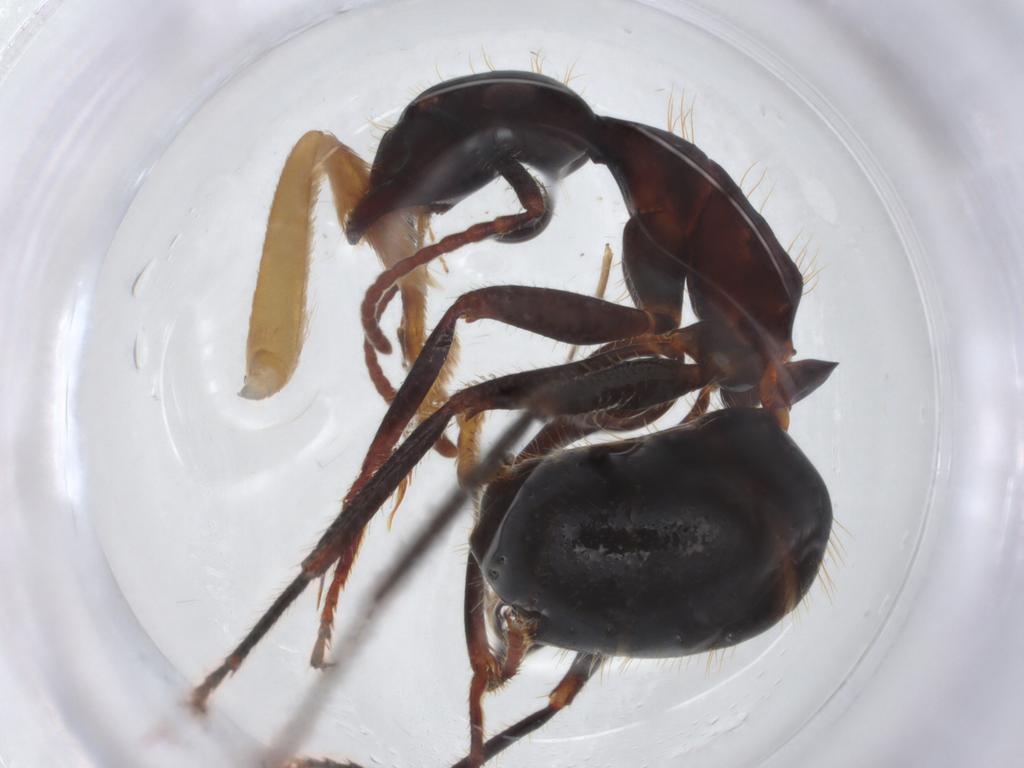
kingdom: Animalia
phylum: Arthropoda
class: Insecta
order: Hymenoptera
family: Formicidae
